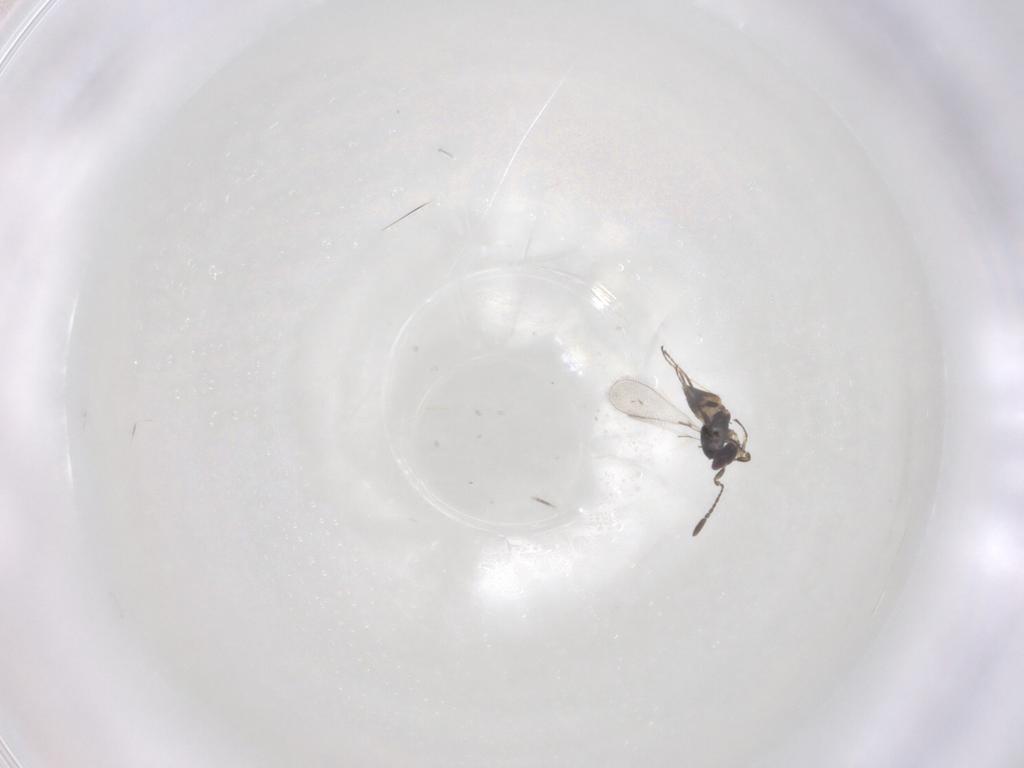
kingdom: Animalia
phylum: Arthropoda
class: Insecta
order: Hymenoptera
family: Mymaridae
